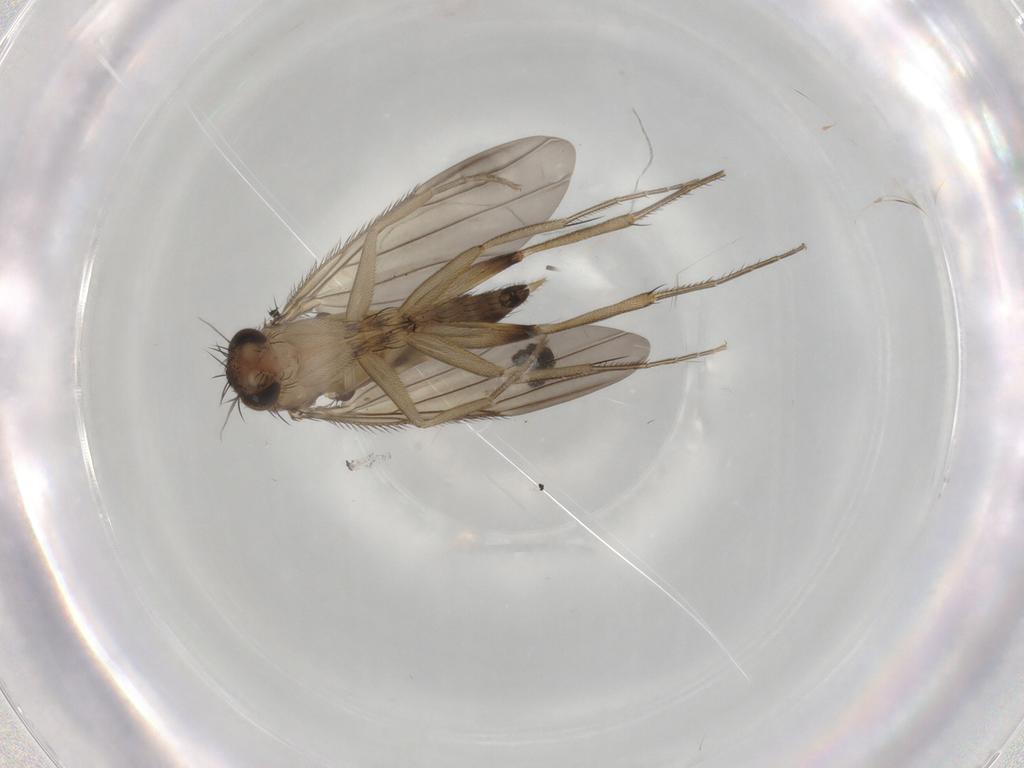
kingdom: Animalia
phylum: Arthropoda
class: Insecta
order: Diptera
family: Phoridae
